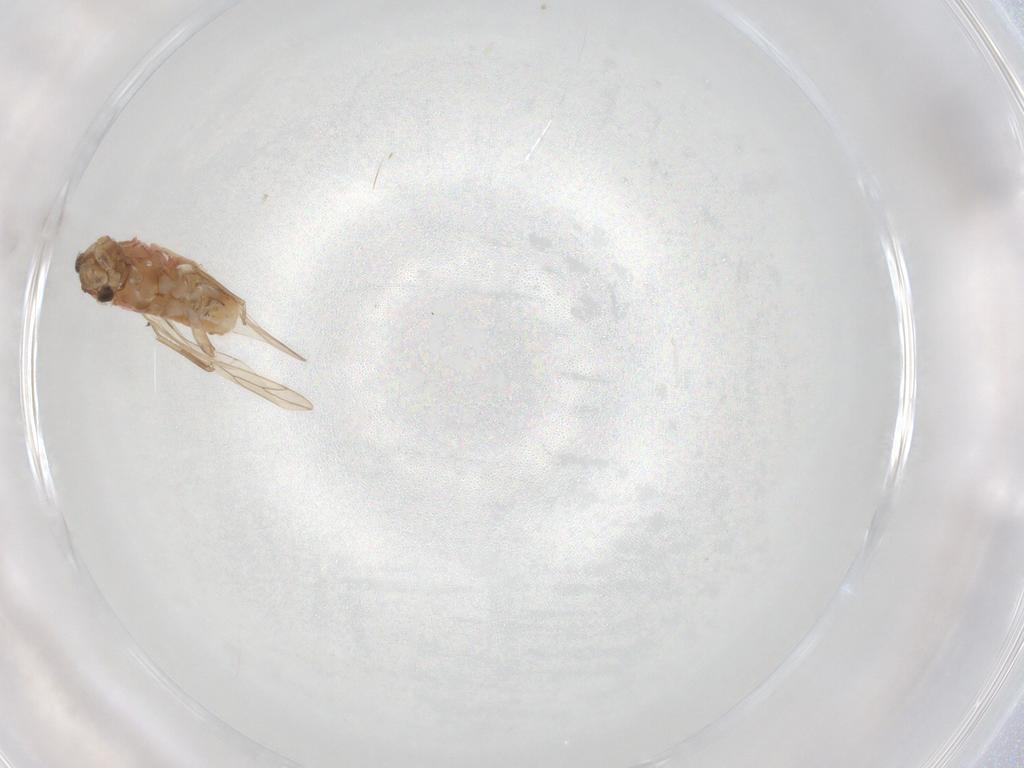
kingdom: Animalia
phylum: Arthropoda
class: Insecta
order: Psocodea
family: Caeciliusidae
